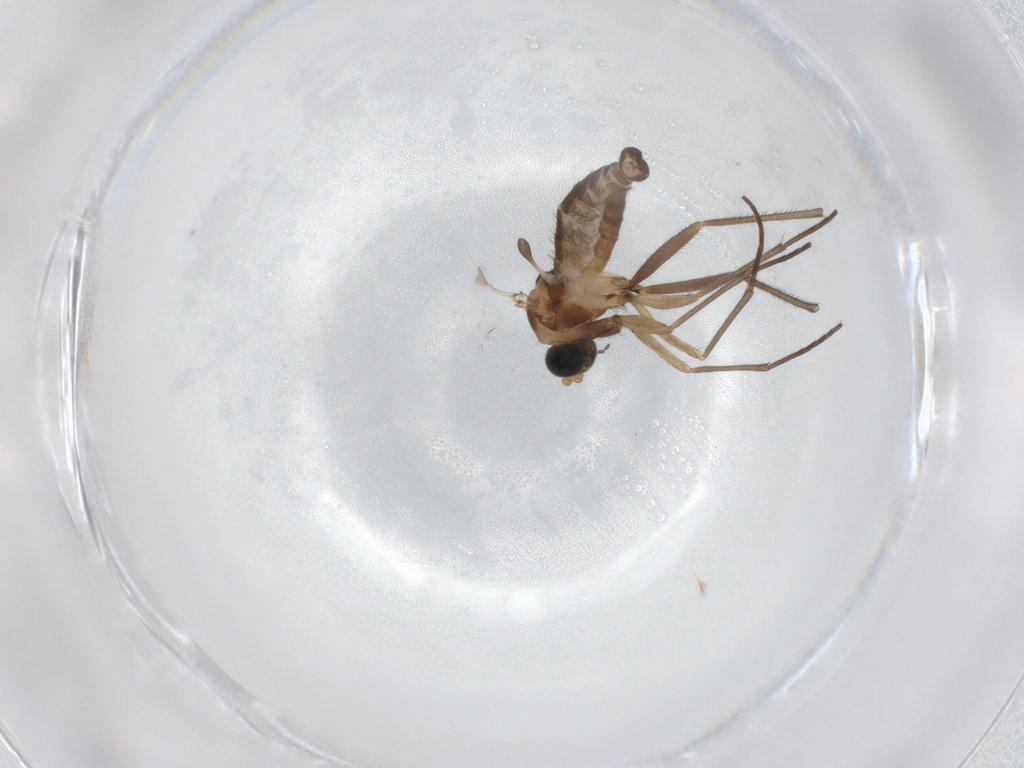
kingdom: Animalia
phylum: Arthropoda
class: Insecta
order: Diptera
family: Sciaridae
